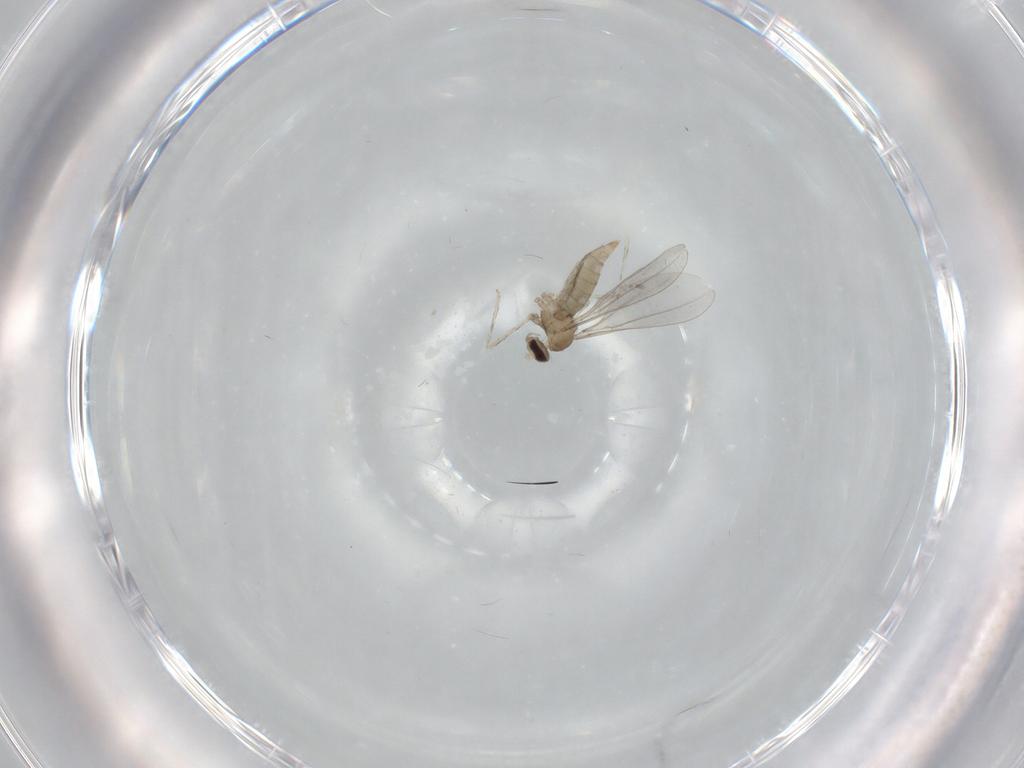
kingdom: Animalia
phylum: Arthropoda
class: Insecta
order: Diptera
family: Cecidomyiidae
